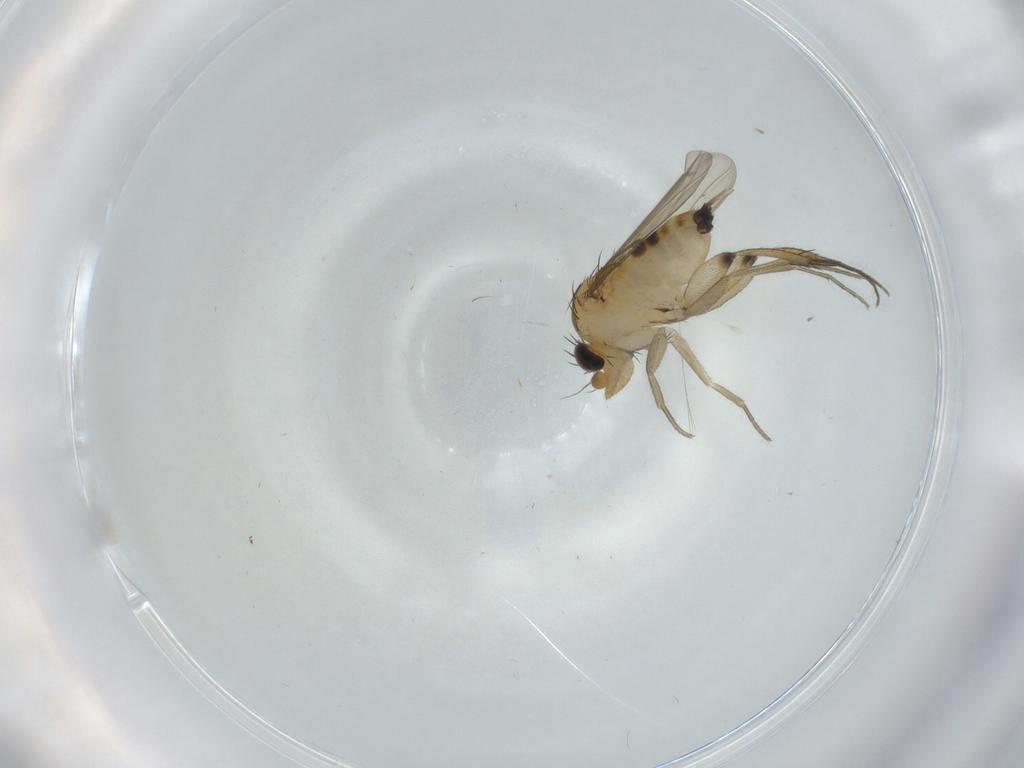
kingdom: Animalia
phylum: Arthropoda
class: Insecta
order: Diptera
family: Phoridae
